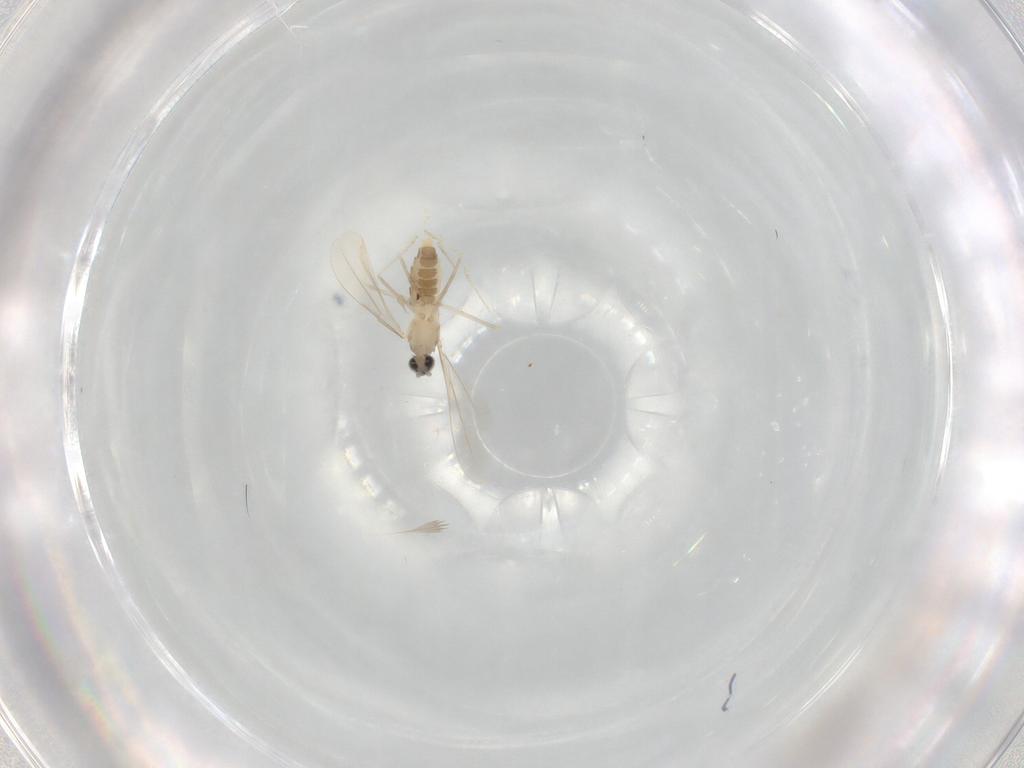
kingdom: Animalia
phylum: Arthropoda
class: Insecta
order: Diptera
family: Cecidomyiidae
